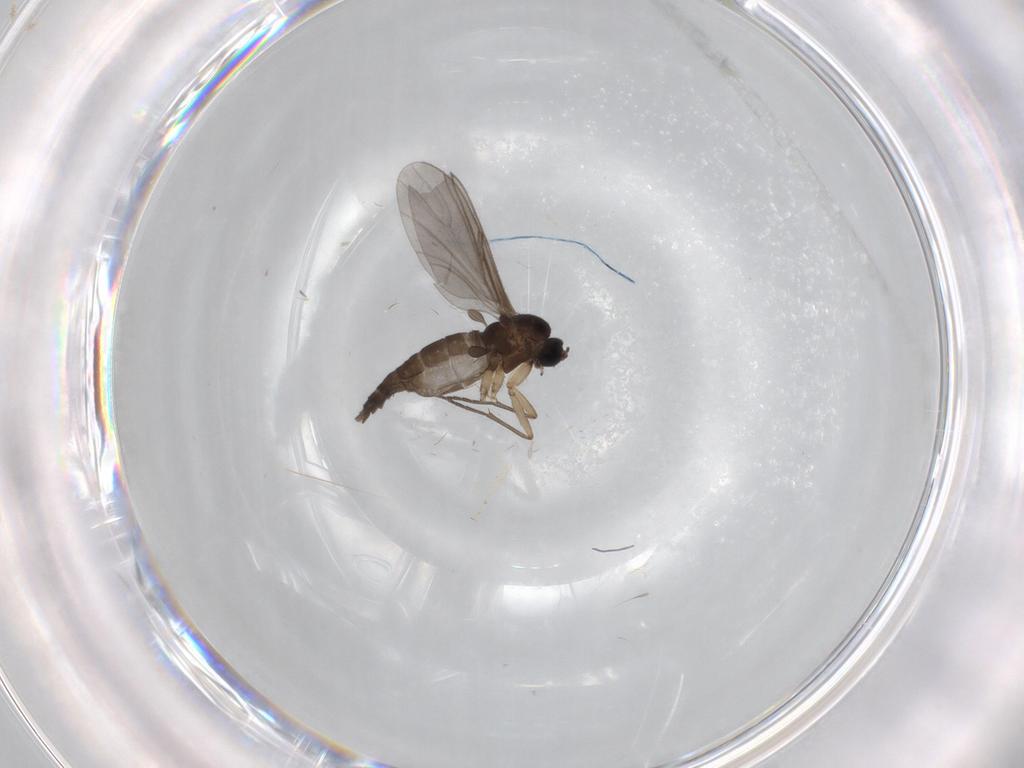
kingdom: Animalia
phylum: Arthropoda
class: Insecta
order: Diptera
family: Sciaridae
